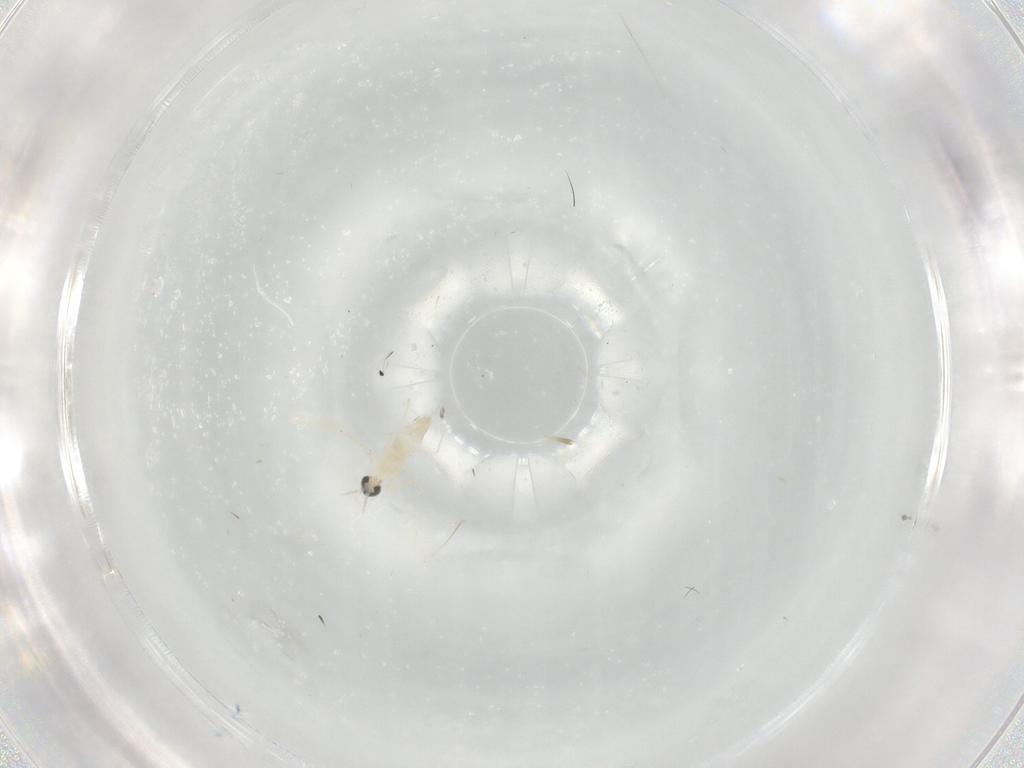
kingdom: Animalia
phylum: Arthropoda
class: Insecta
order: Diptera
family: Cecidomyiidae
